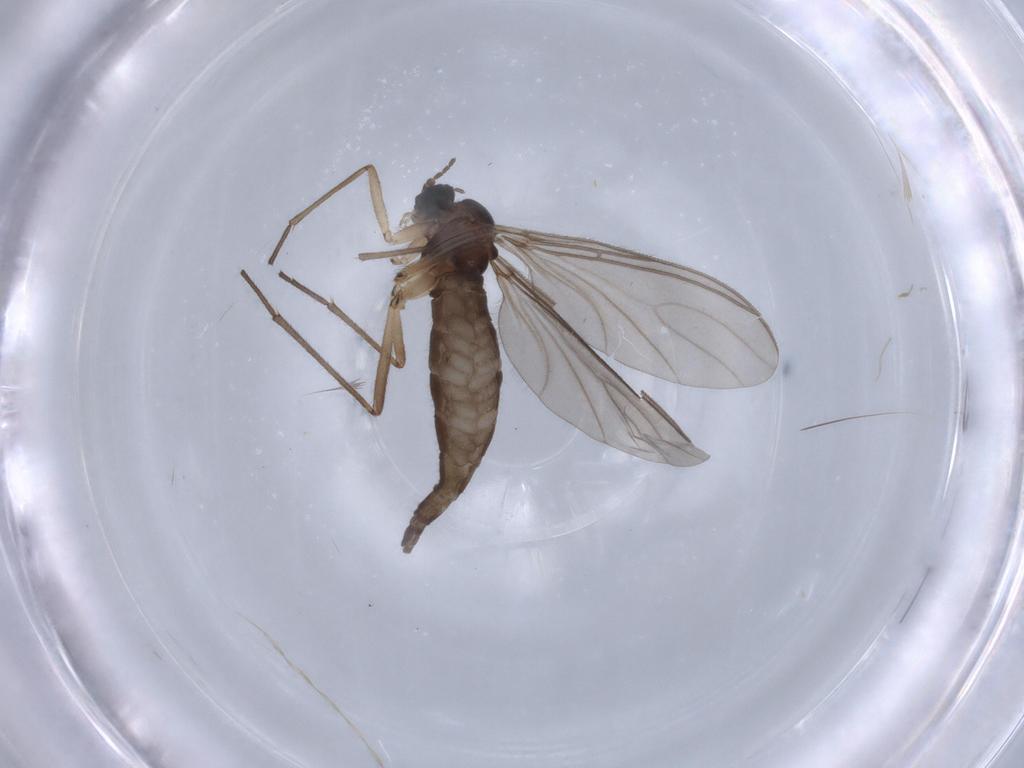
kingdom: Animalia
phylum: Arthropoda
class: Insecta
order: Diptera
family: Sciaridae
